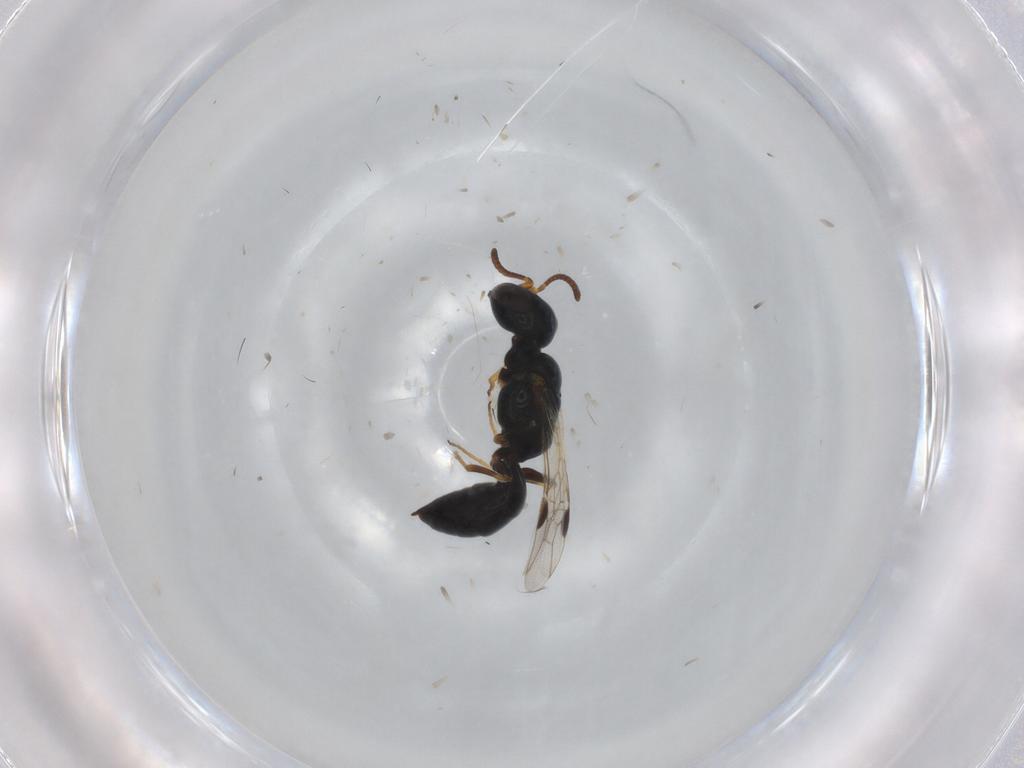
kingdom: Animalia
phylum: Arthropoda
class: Insecta
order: Hymenoptera
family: Pemphredonidae
